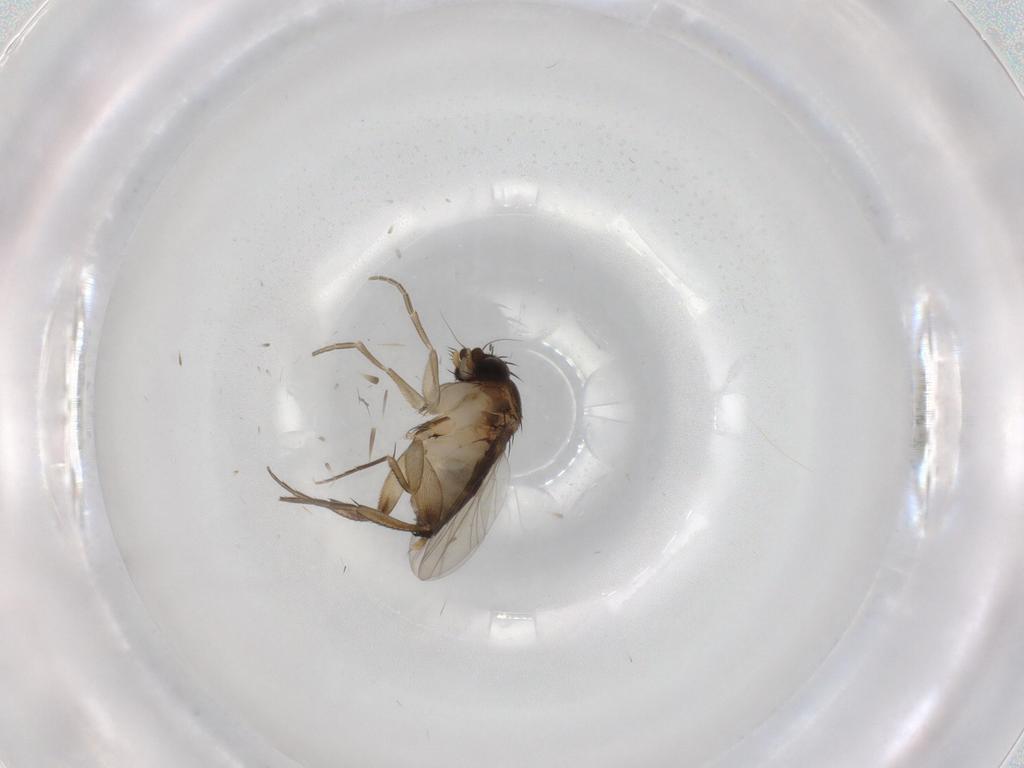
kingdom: Animalia
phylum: Arthropoda
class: Insecta
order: Diptera
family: Phoridae
